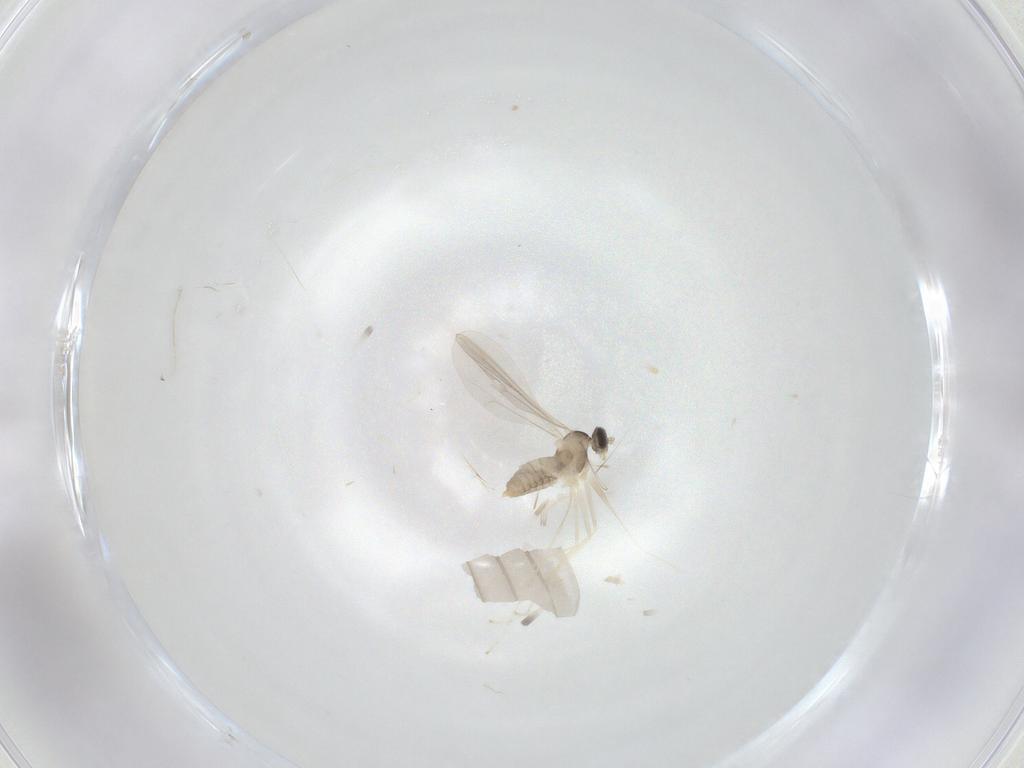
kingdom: Animalia
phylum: Arthropoda
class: Insecta
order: Diptera
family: Cecidomyiidae
